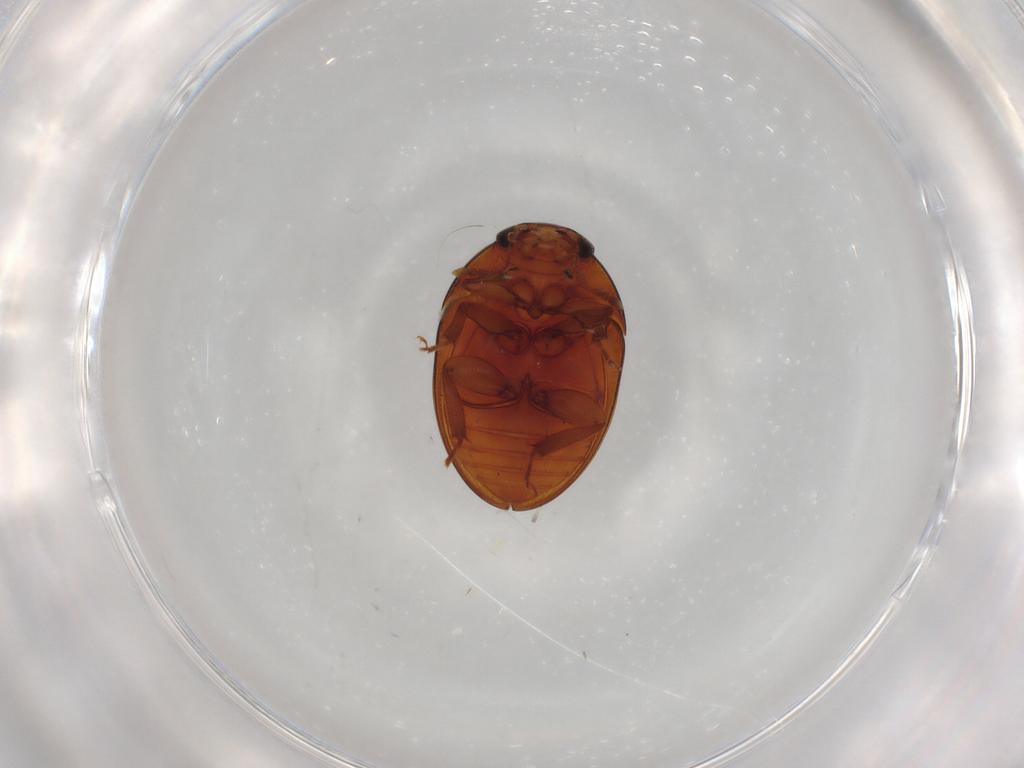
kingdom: Animalia
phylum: Arthropoda
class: Insecta
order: Coleoptera
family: Carabidae
